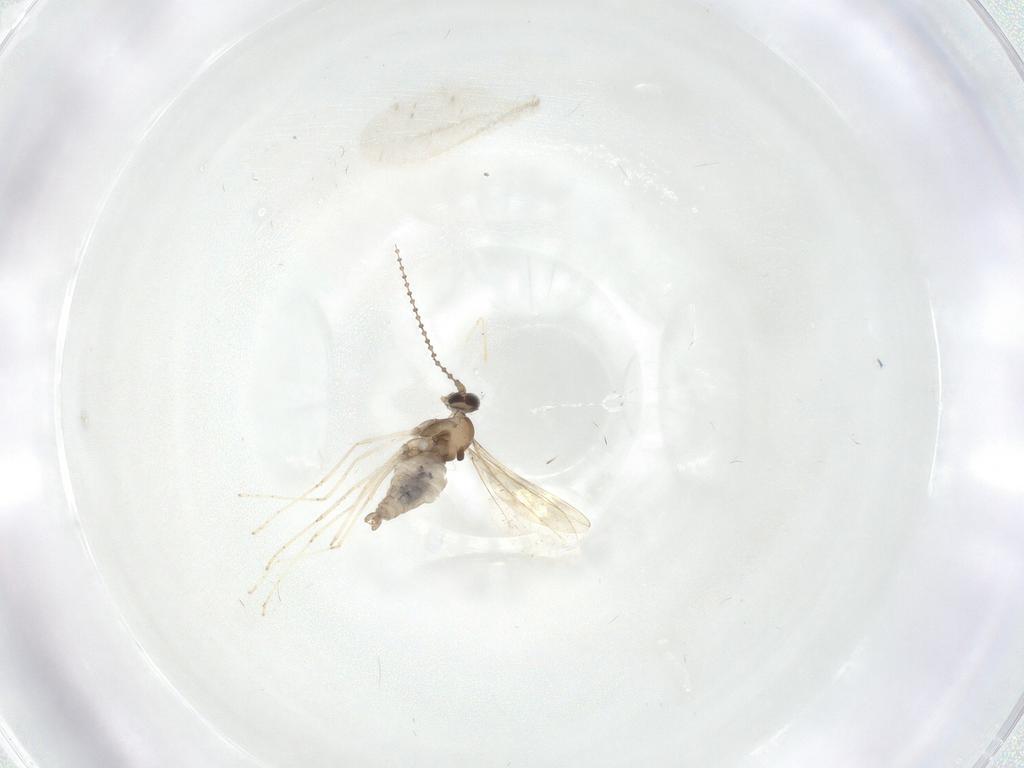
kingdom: Animalia
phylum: Arthropoda
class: Insecta
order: Diptera
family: Cecidomyiidae
